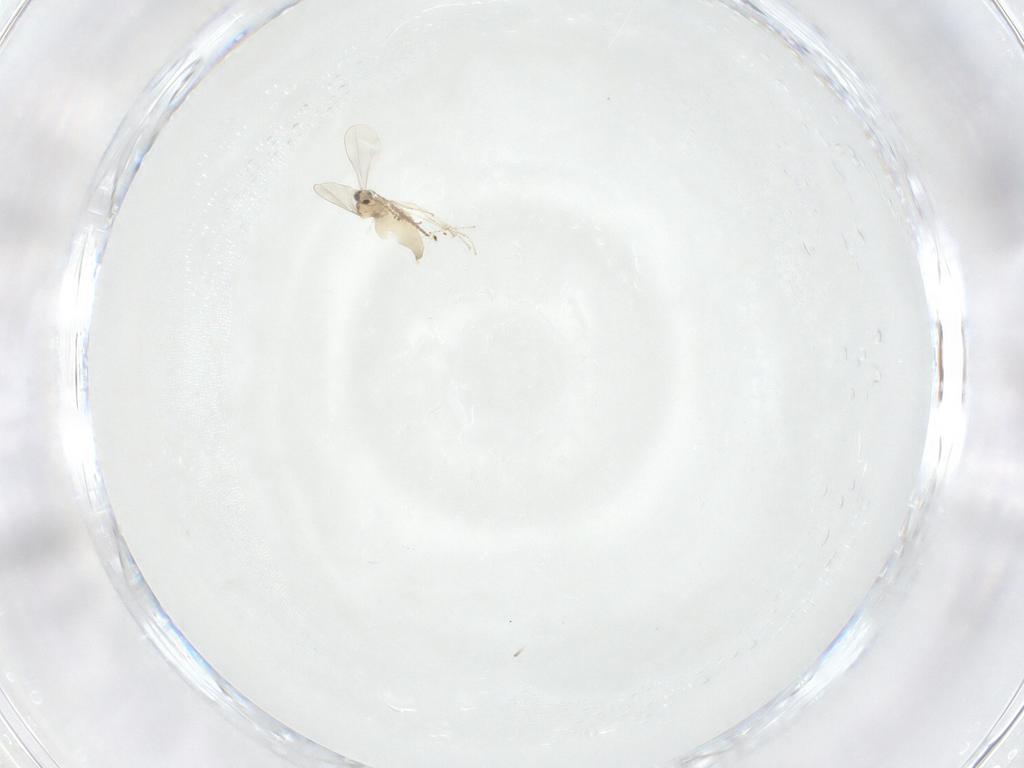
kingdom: Animalia
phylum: Arthropoda
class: Insecta
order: Diptera
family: Cecidomyiidae
